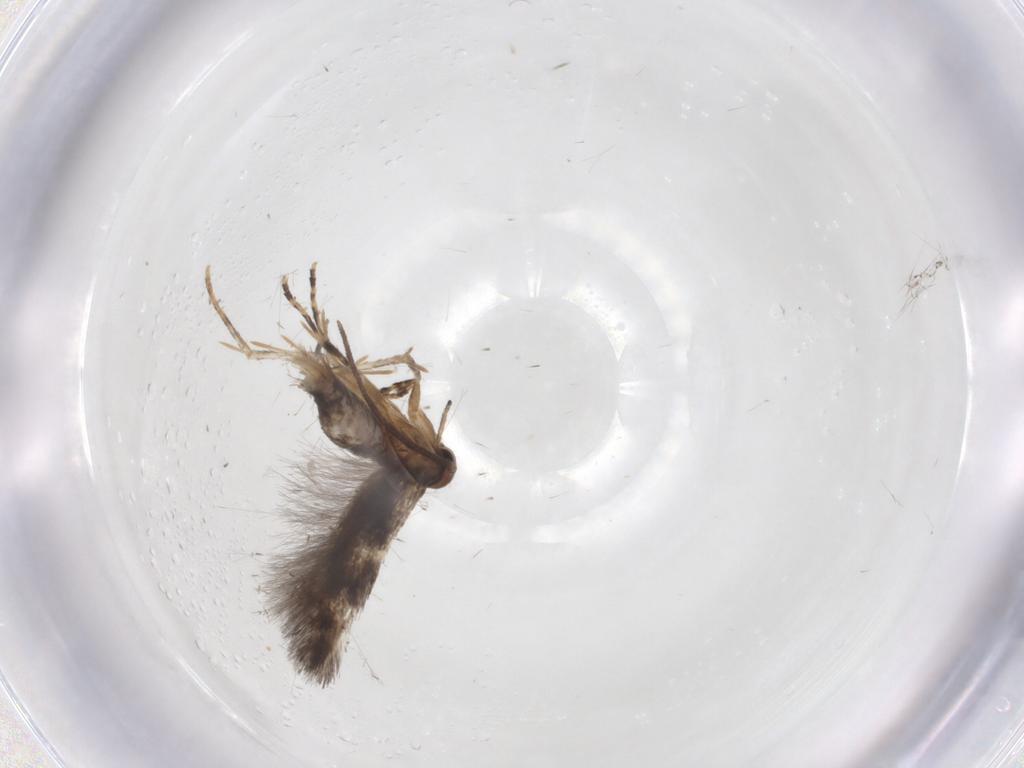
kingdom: Animalia
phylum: Arthropoda
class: Insecta
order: Lepidoptera
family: Elachistidae
